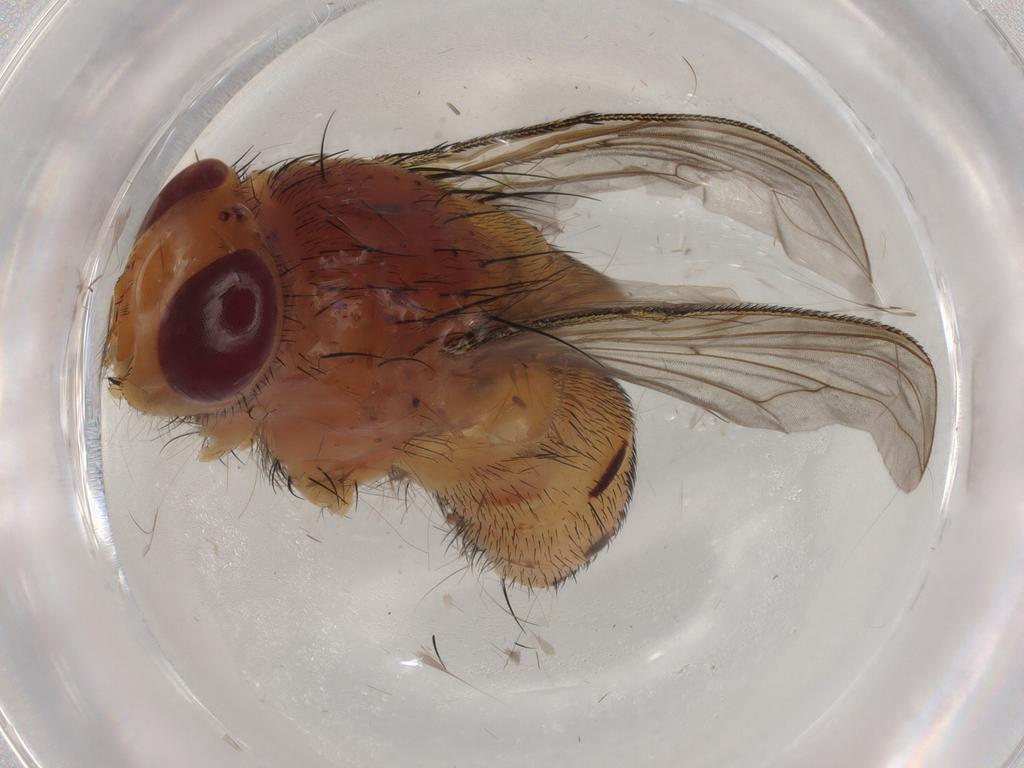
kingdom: Animalia
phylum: Arthropoda
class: Insecta
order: Diptera
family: Calliphoridae
